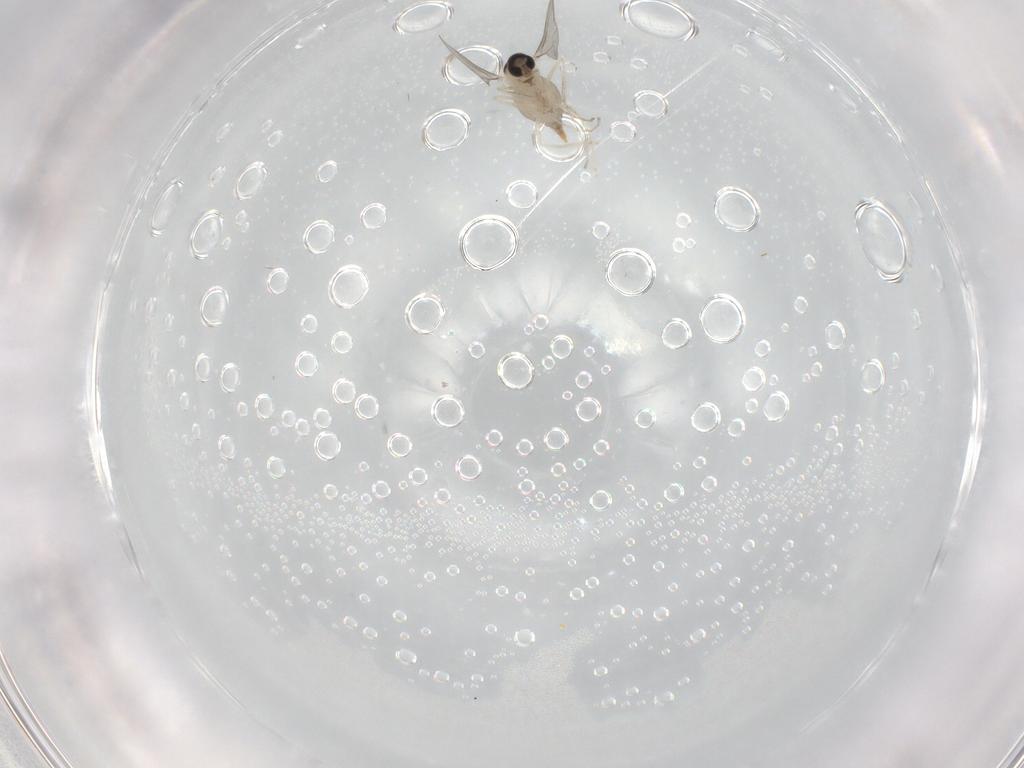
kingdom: Animalia
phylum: Arthropoda
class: Insecta
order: Diptera
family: Cecidomyiidae
